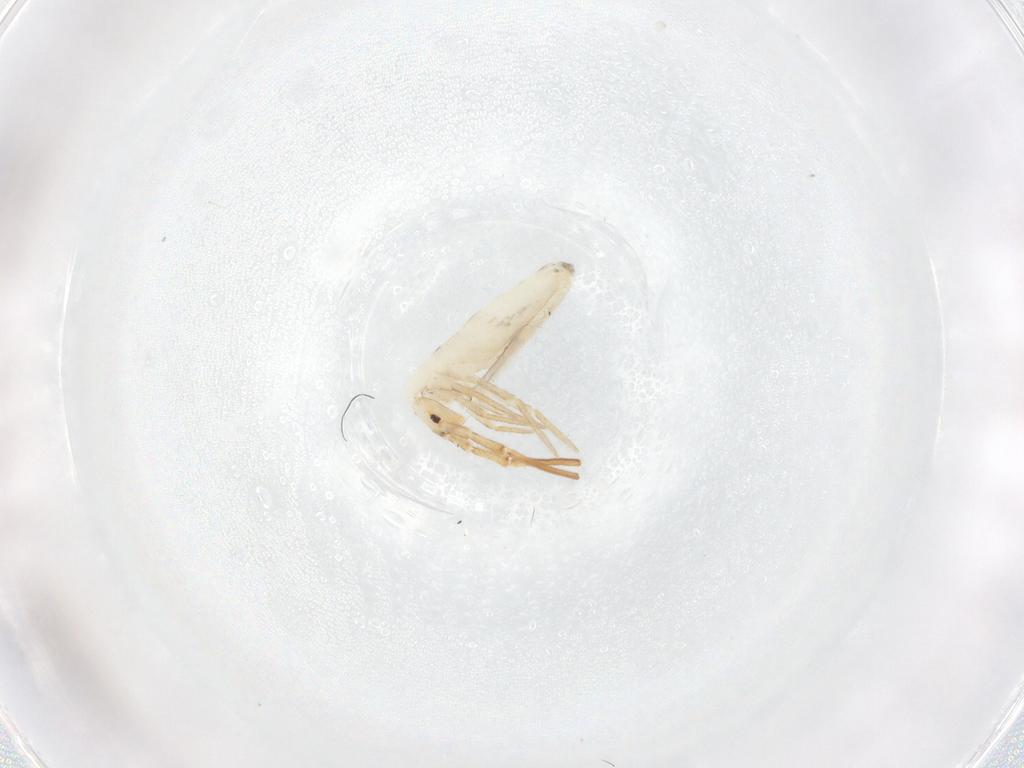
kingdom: Animalia
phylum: Arthropoda
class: Collembola
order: Entomobryomorpha
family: Entomobryidae
